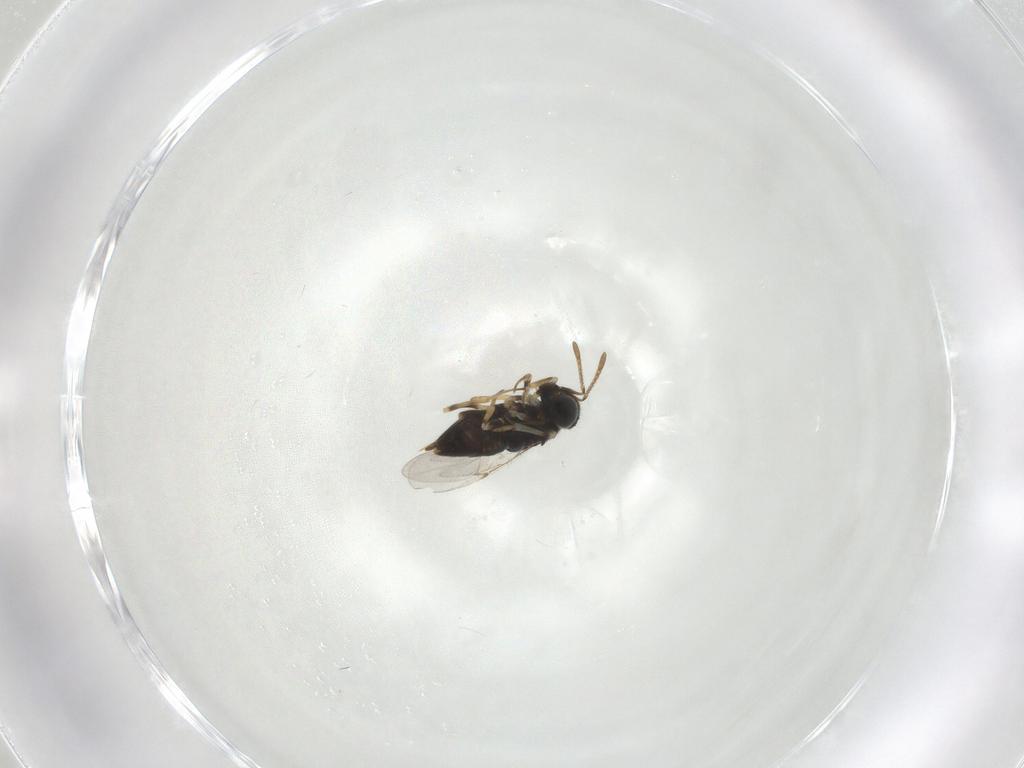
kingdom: Animalia
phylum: Arthropoda
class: Insecta
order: Hymenoptera
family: Encyrtidae
